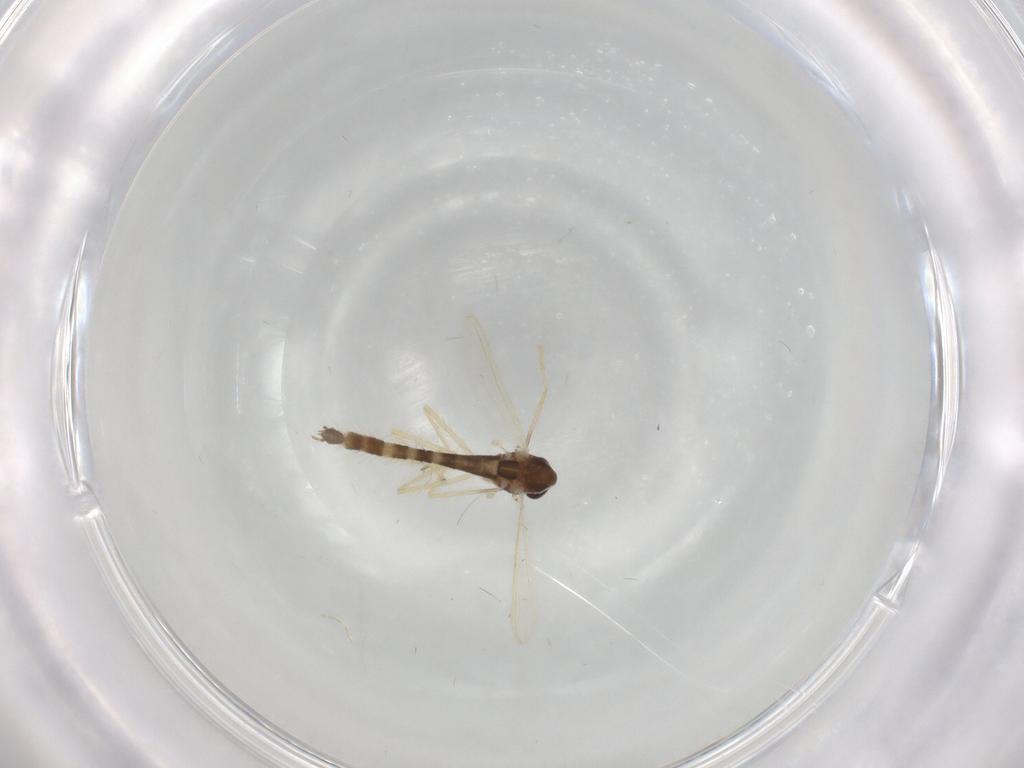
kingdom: Animalia
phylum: Arthropoda
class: Insecta
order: Diptera
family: Chironomidae
